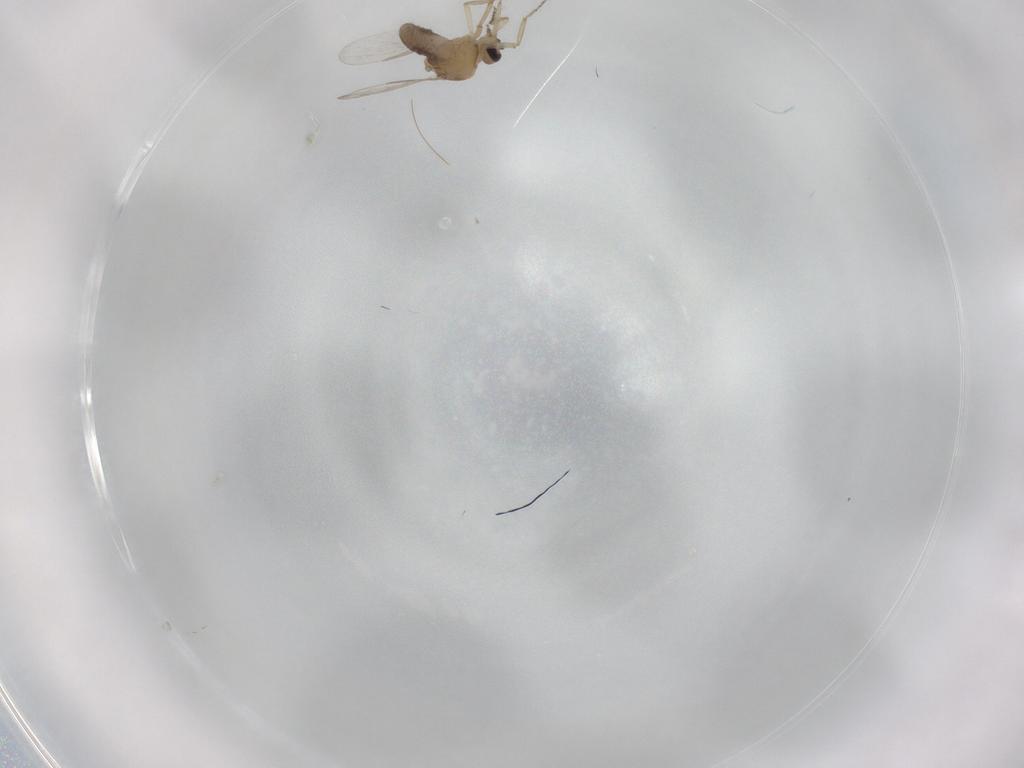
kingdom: Animalia
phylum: Arthropoda
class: Insecta
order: Diptera
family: Ceratopogonidae
